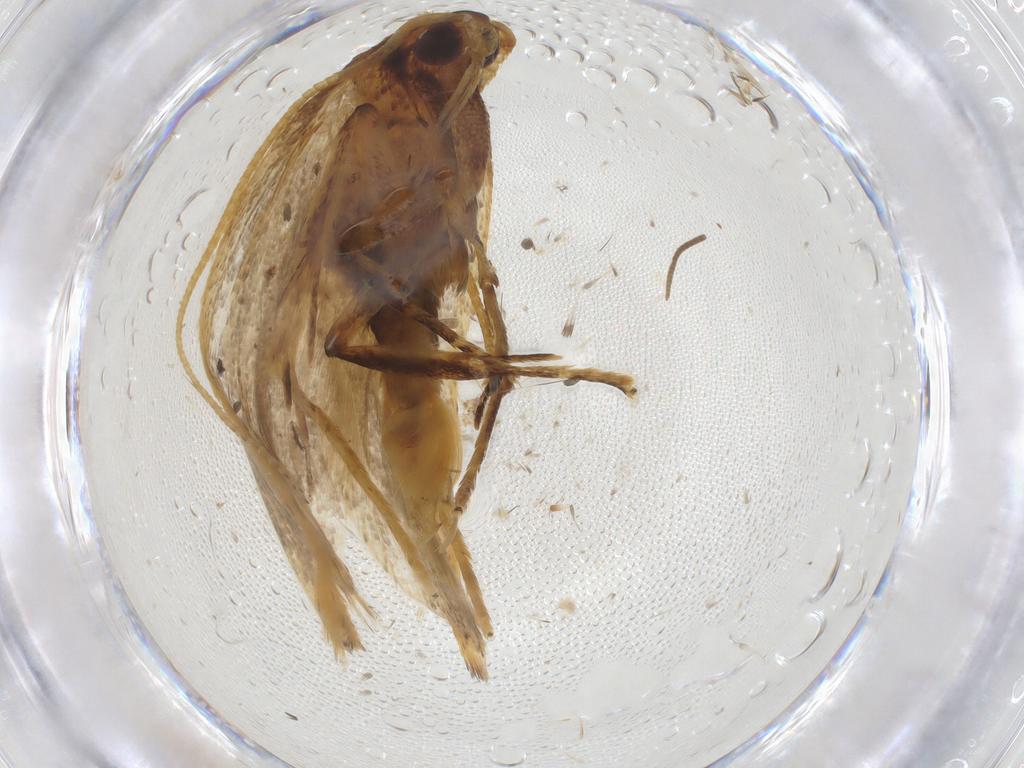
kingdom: Animalia
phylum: Arthropoda
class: Insecta
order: Lepidoptera
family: Lecithoceridae
